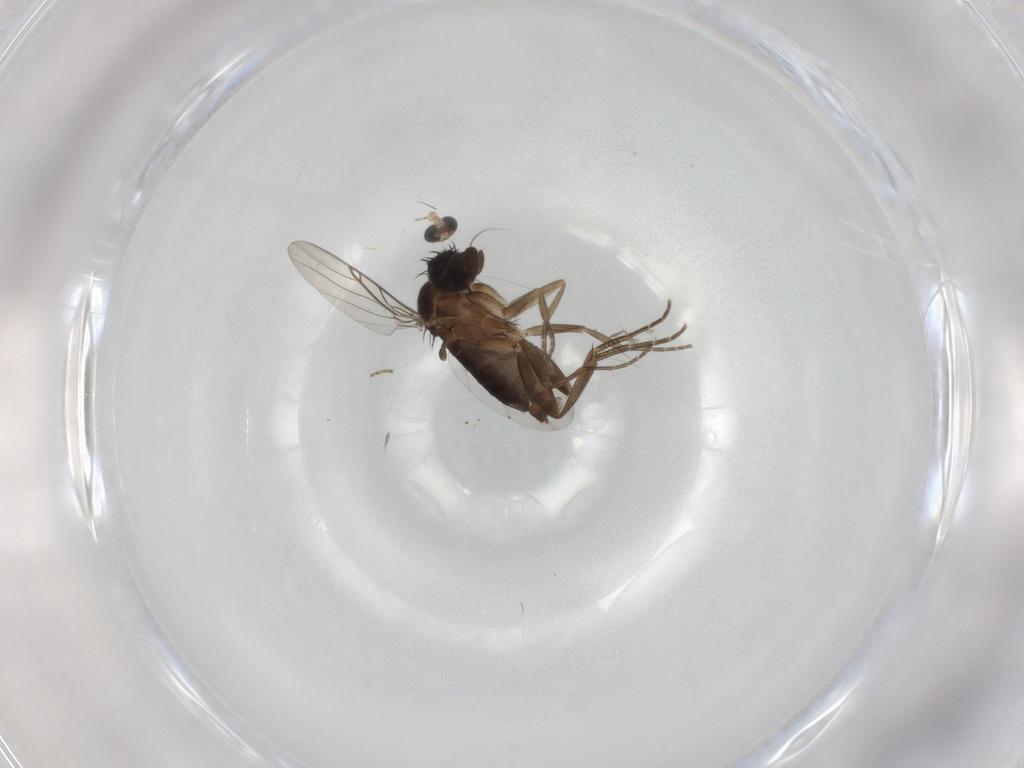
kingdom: Animalia
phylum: Arthropoda
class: Insecta
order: Diptera
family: Phoridae
